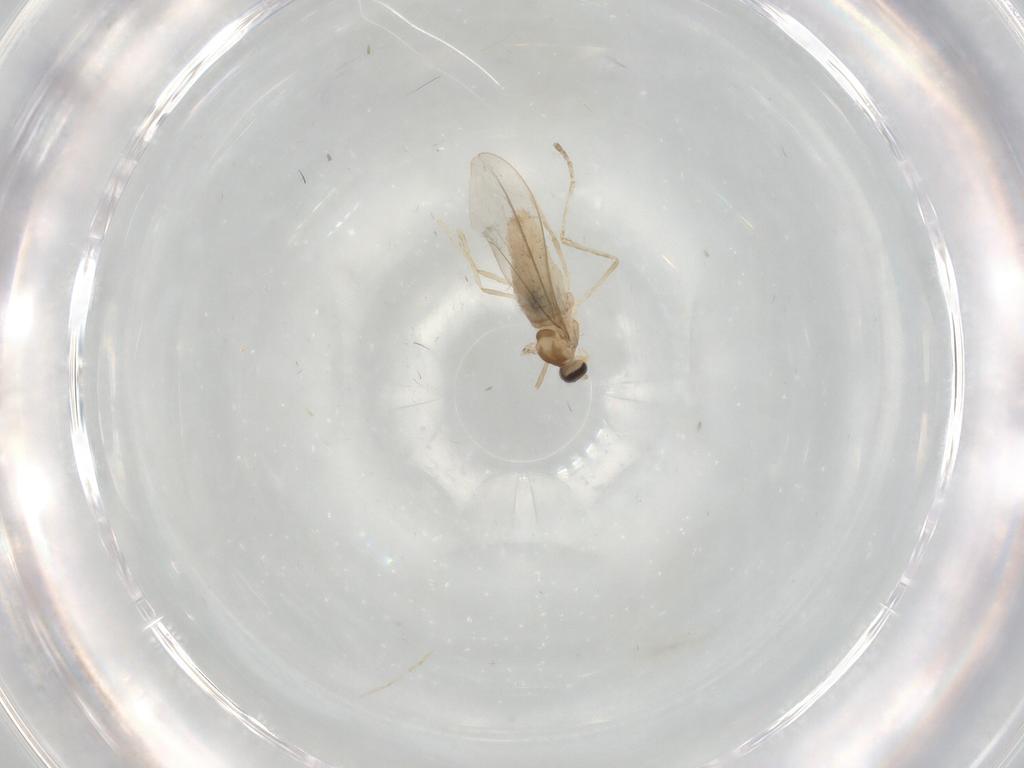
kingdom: Animalia
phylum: Arthropoda
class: Insecta
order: Diptera
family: Cecidomyiidae
